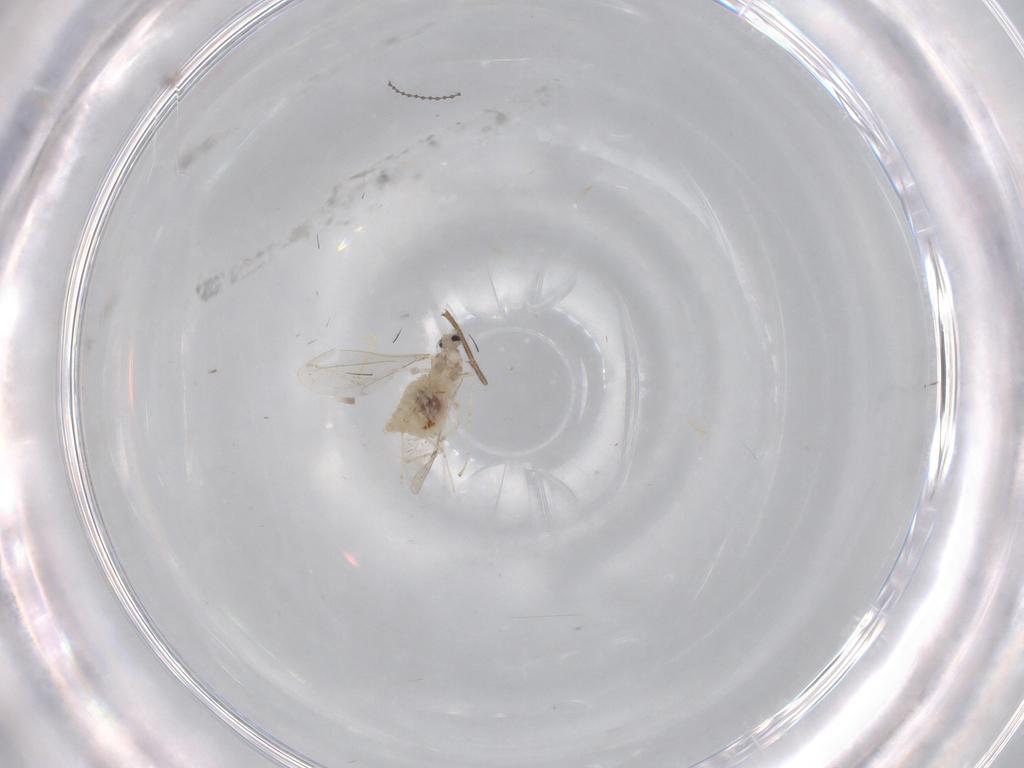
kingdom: Animalia
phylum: Arthropoda
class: Insecta
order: Diptera
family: Cecidomyiidae
